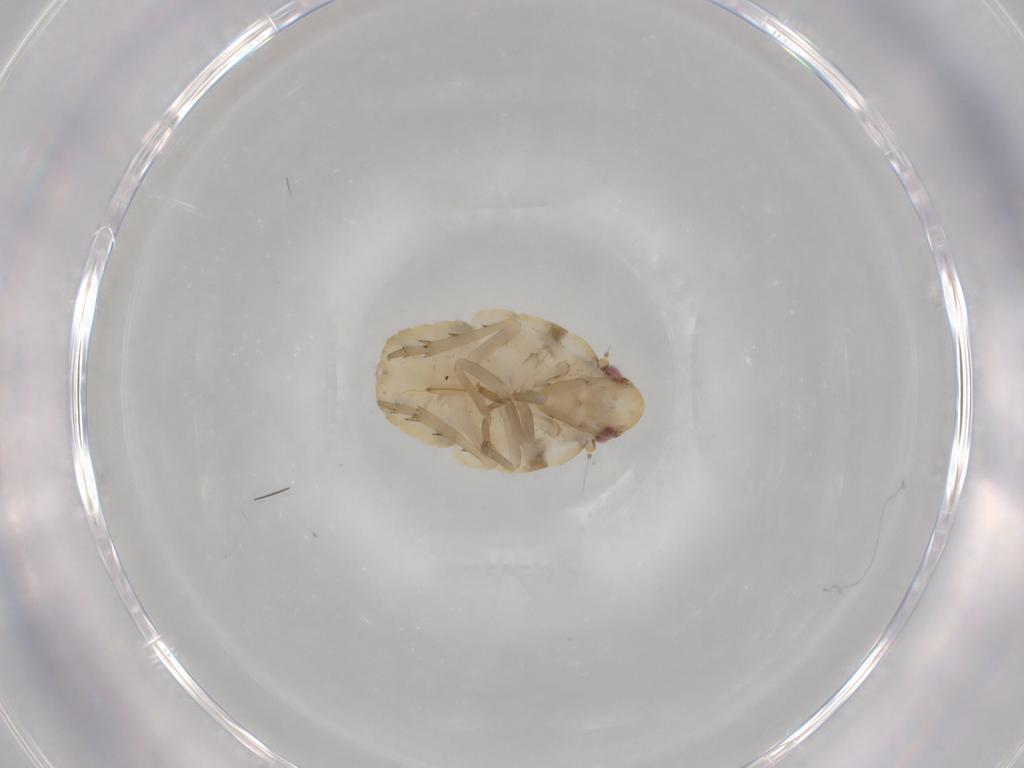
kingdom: Animalia
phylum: Arthropoda
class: Insecta
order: Hemiptera
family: Flatidae
